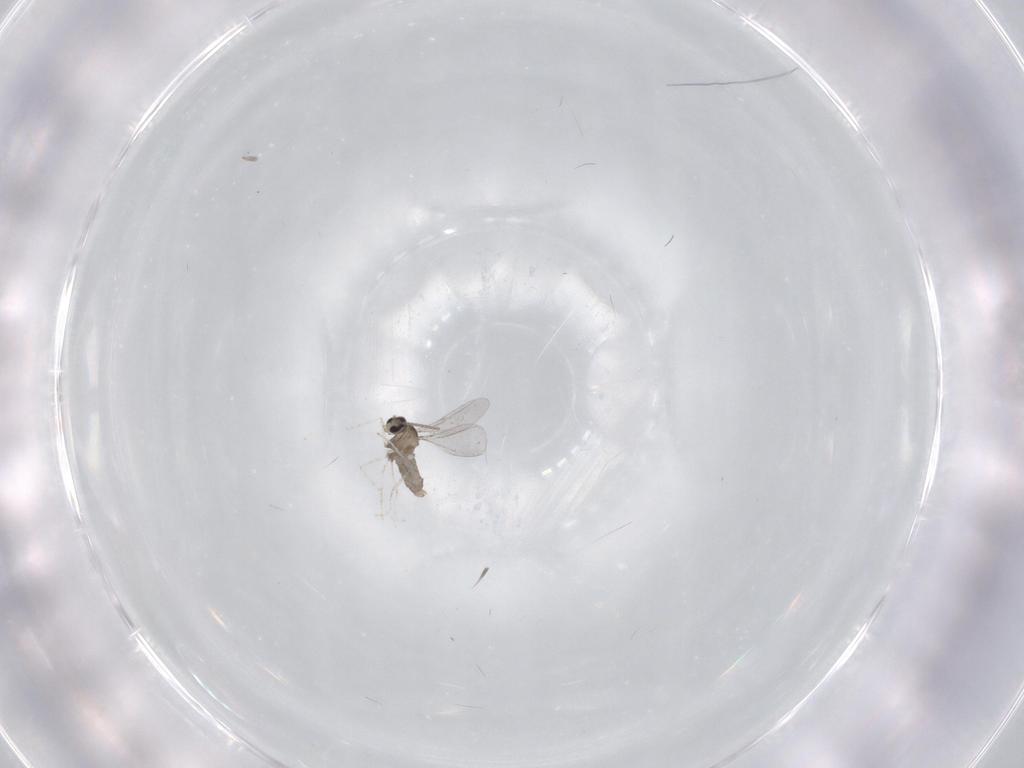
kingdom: Animalia
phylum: Arthropoda
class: Insecta
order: Diptera
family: Cecidomyiidae
